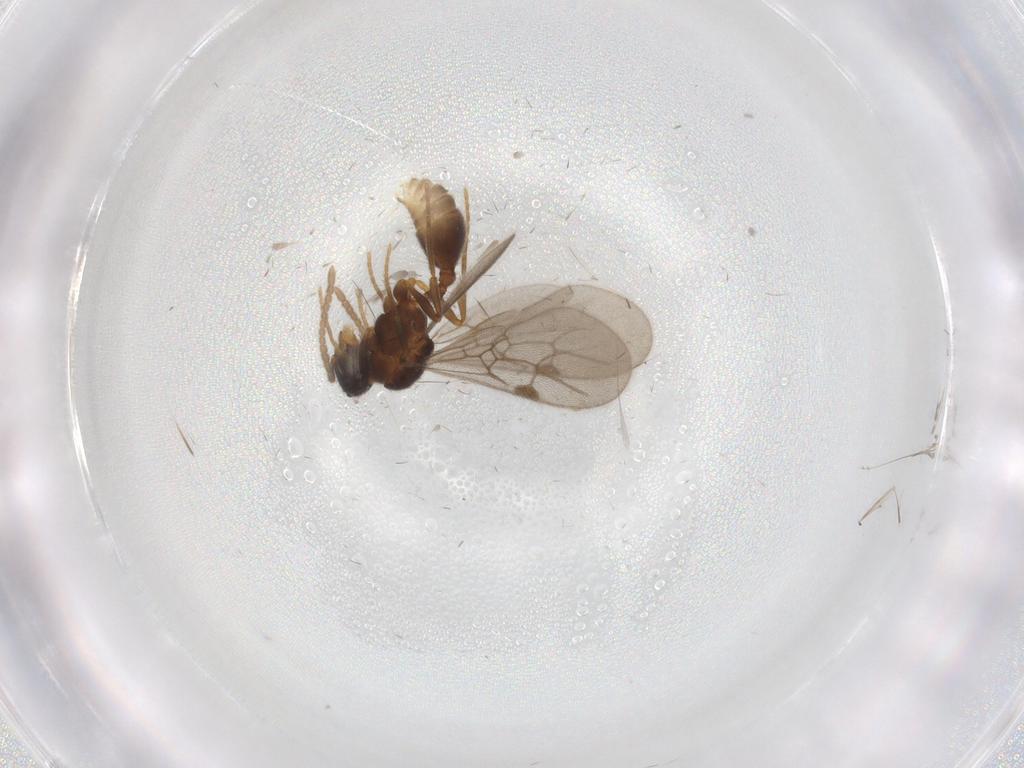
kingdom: Animalia
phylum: Arthropoda
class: Insecta
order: Hymenoptera
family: Formicidae
